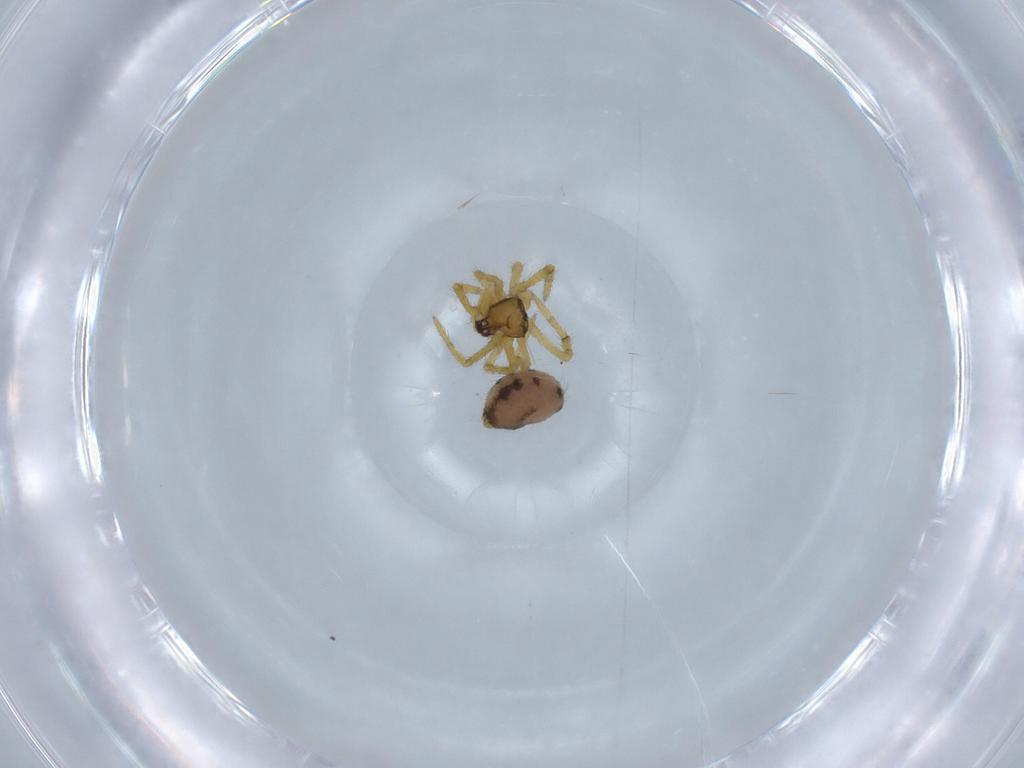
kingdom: Animalia
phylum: Arthropoda
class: Arachnida
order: Araneae
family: Theridiidae
